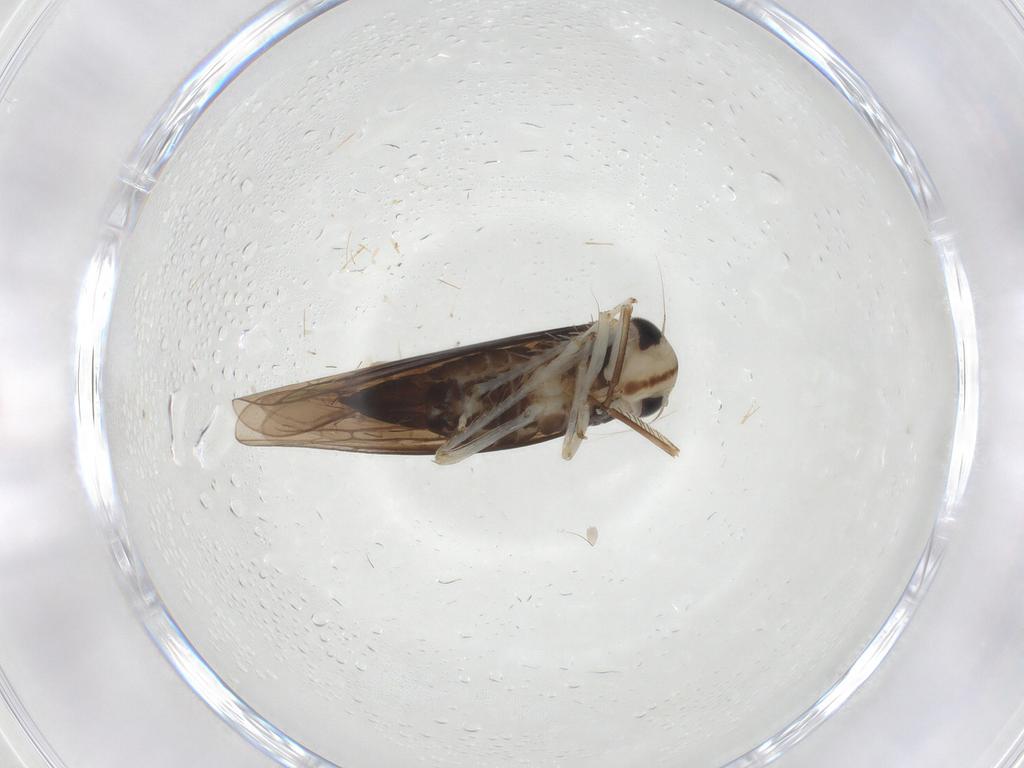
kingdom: Animalia
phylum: Arthropoda
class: Insecta
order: Hemiptera
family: Cicadellidae
